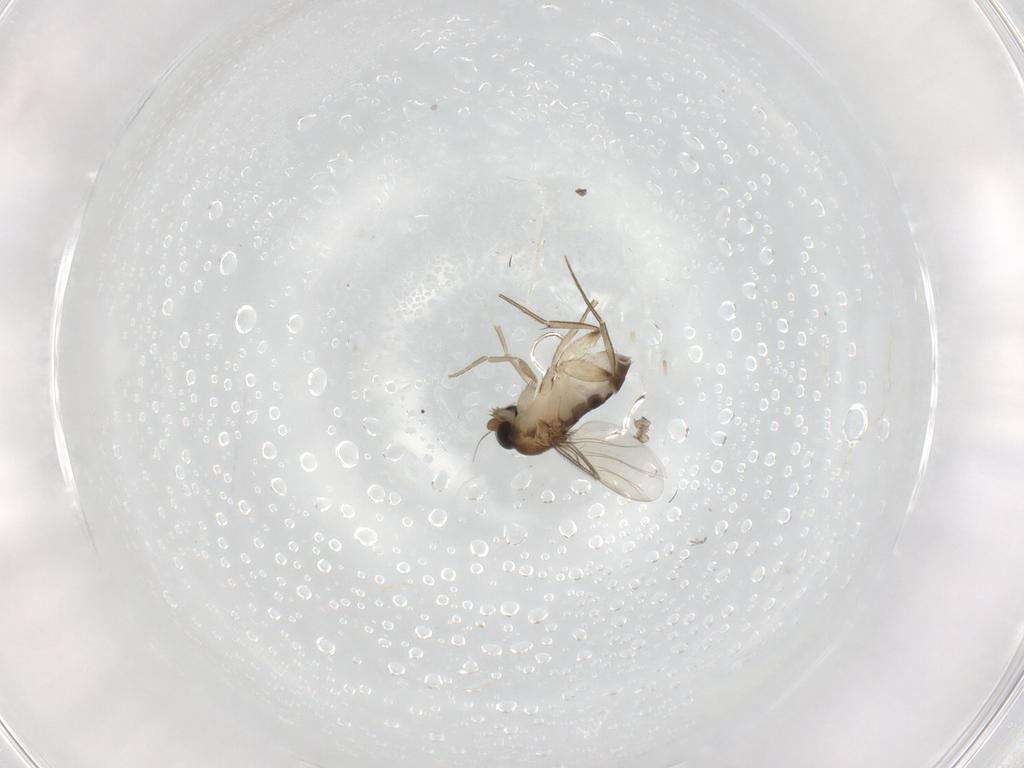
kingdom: Animalia
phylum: Arthropoda
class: Insecta
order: Diptera
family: Phoridae
